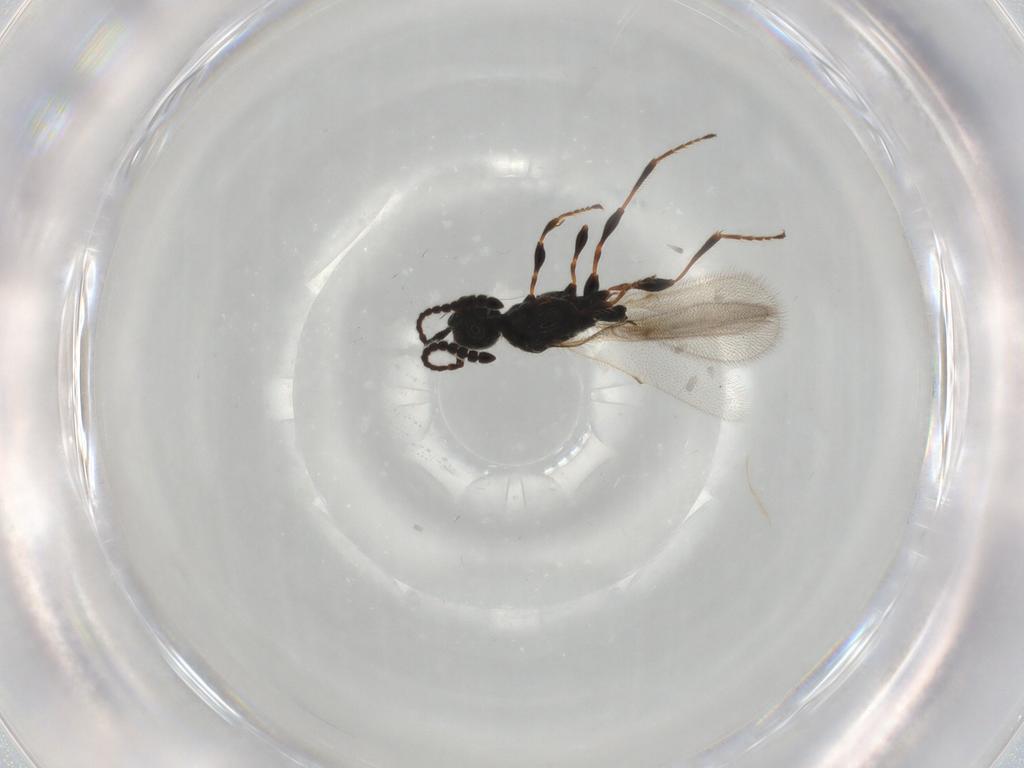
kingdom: Animalia
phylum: Arthropoda
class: Insecta
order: Hymenoptera
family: Diapriidae
